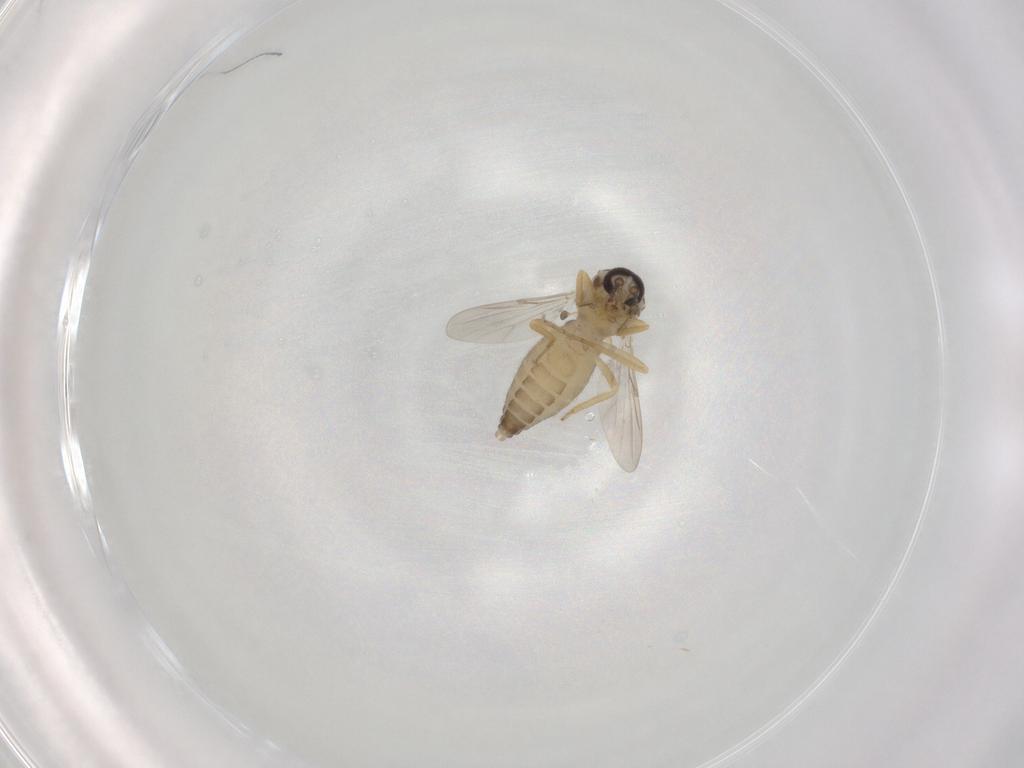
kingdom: Animalia
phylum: Arthropoda
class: Insecta
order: Diptera
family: Ceratopogonidae
